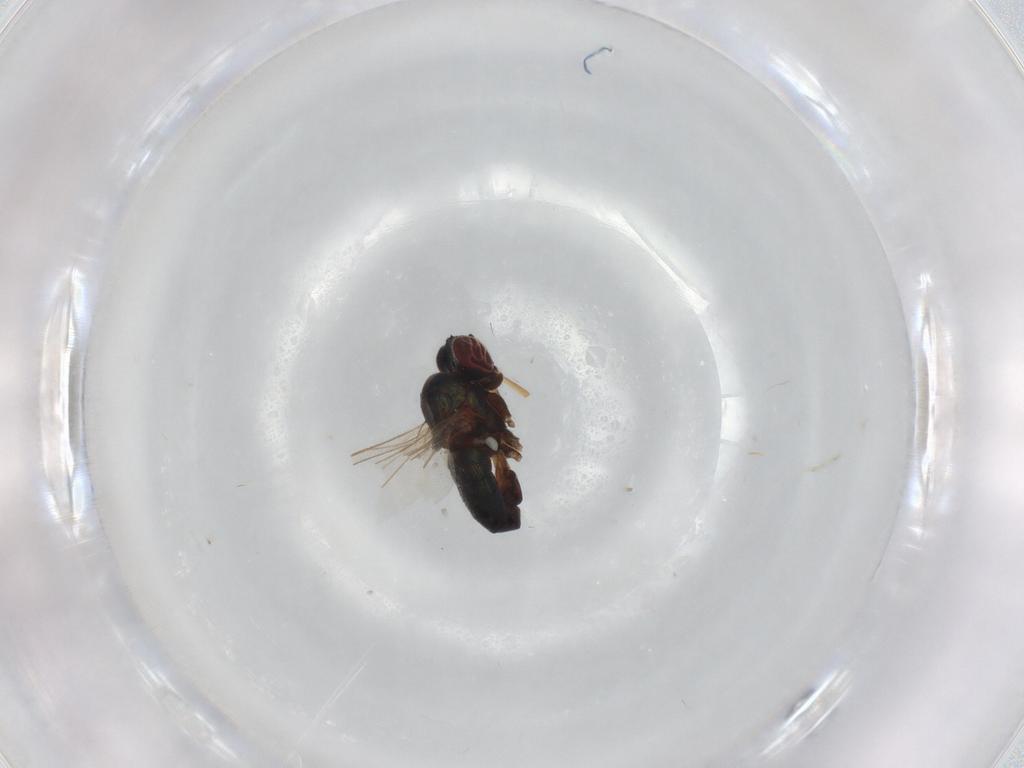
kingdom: Animalia
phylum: Arthropoda
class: Insecta
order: Diptera
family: Dolichopodidae
